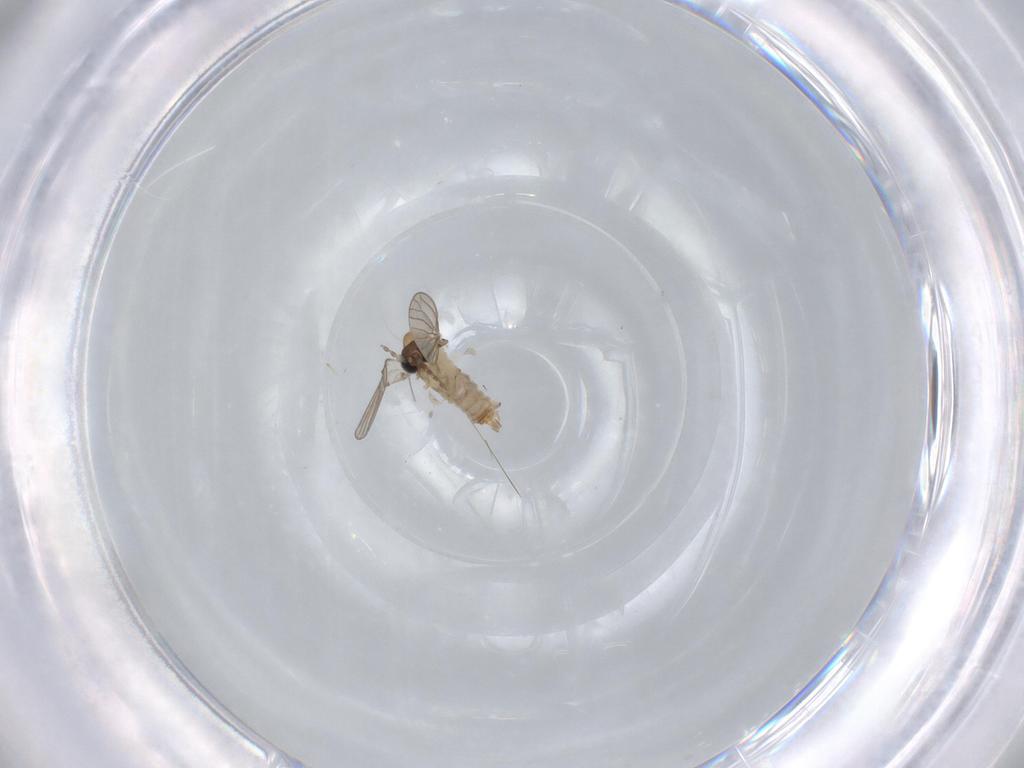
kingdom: Animalia
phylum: Arthropoda
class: Insecta
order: Diptera
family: Psychodidae
